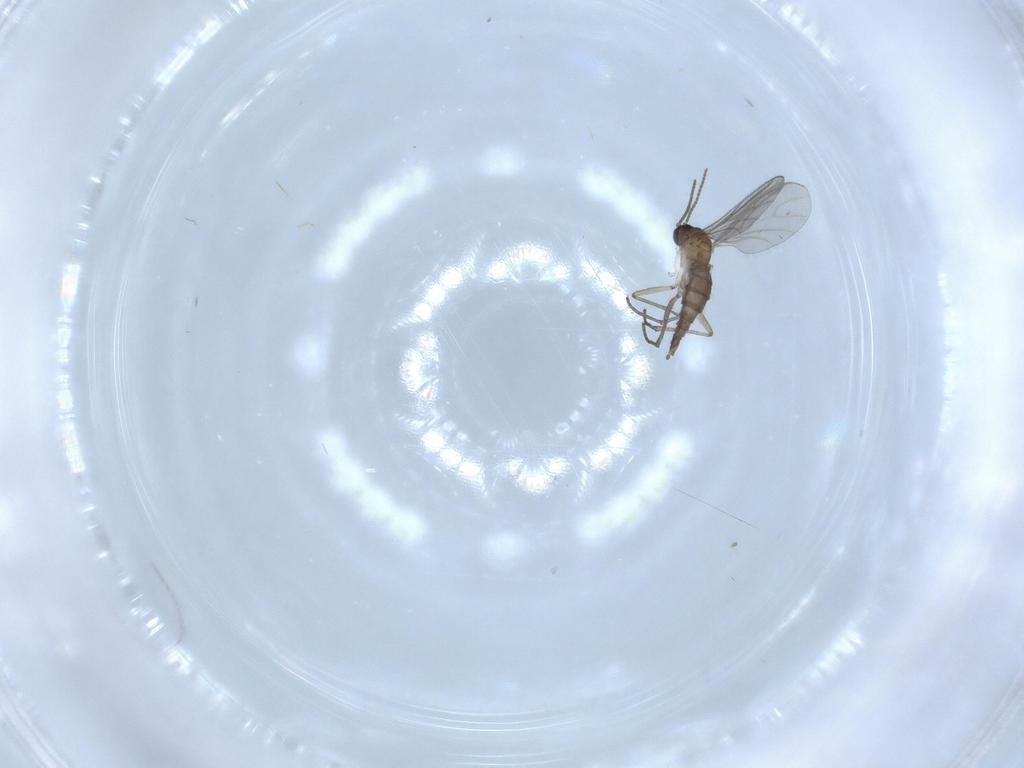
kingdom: Animalia
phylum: Arthropoda
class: Insecta
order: Diptera
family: Sciaridae
